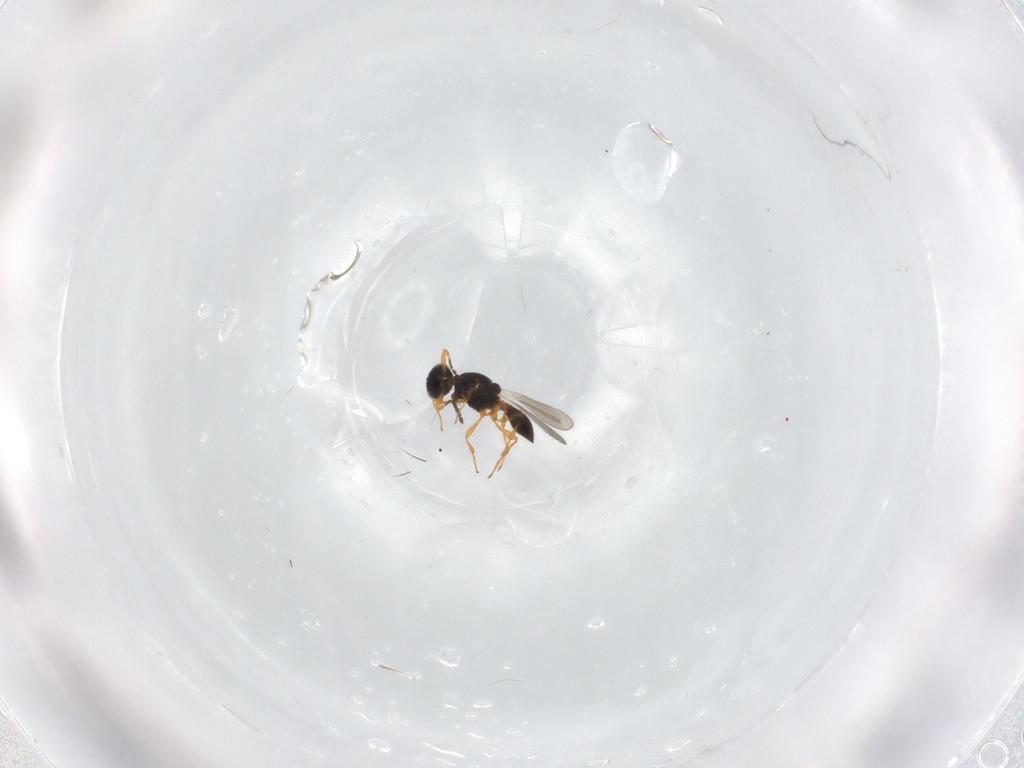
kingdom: Animalia
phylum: Arthropoda
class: Insecta
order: Hymenoptera
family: Platygastridae
